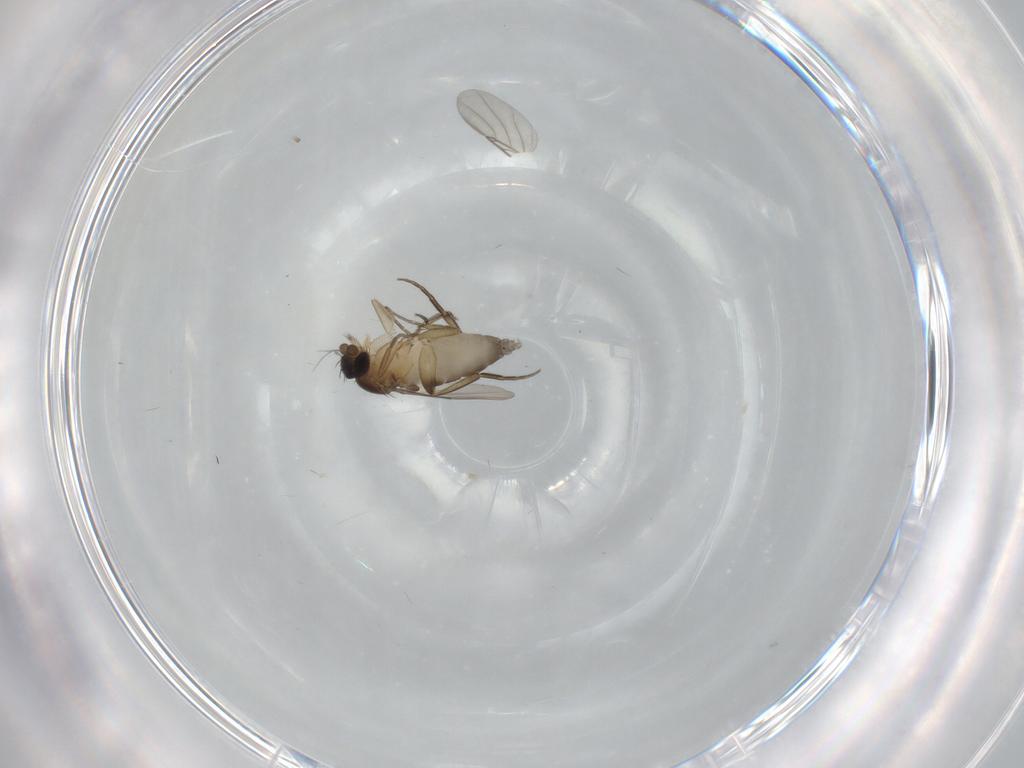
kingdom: Animalia
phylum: Arthropoda
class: Insecta
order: Diptera
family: Phoridae
